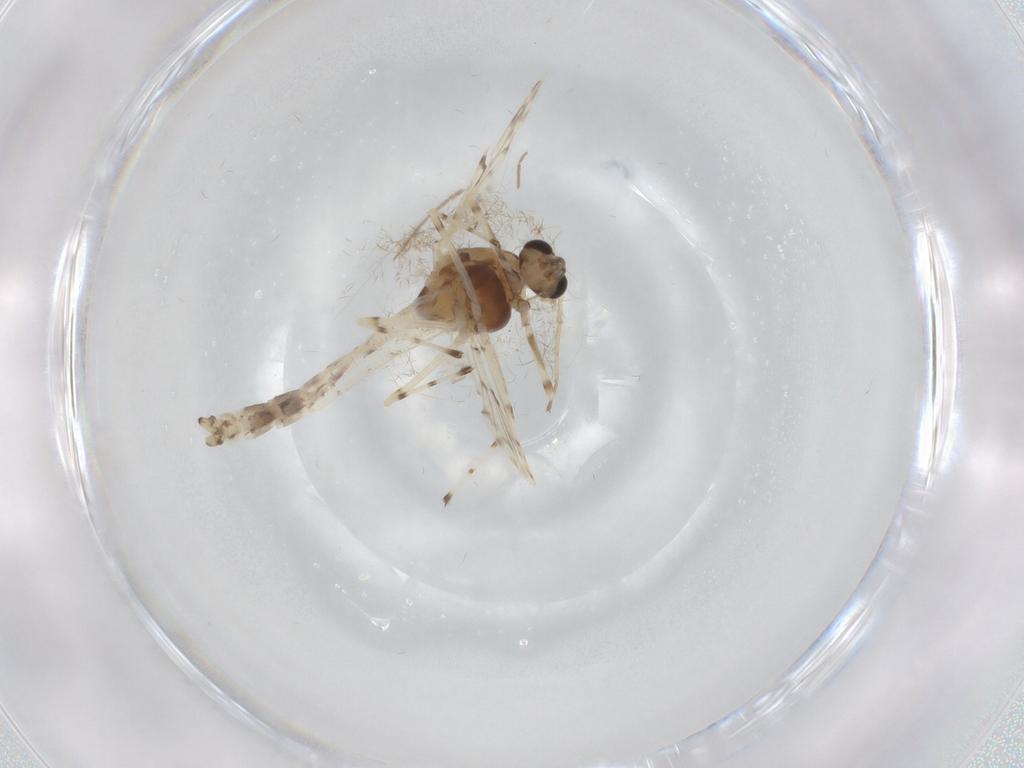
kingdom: Animalia
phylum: Arthropoda
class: Insecta
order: Diptera
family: Chironomidae
